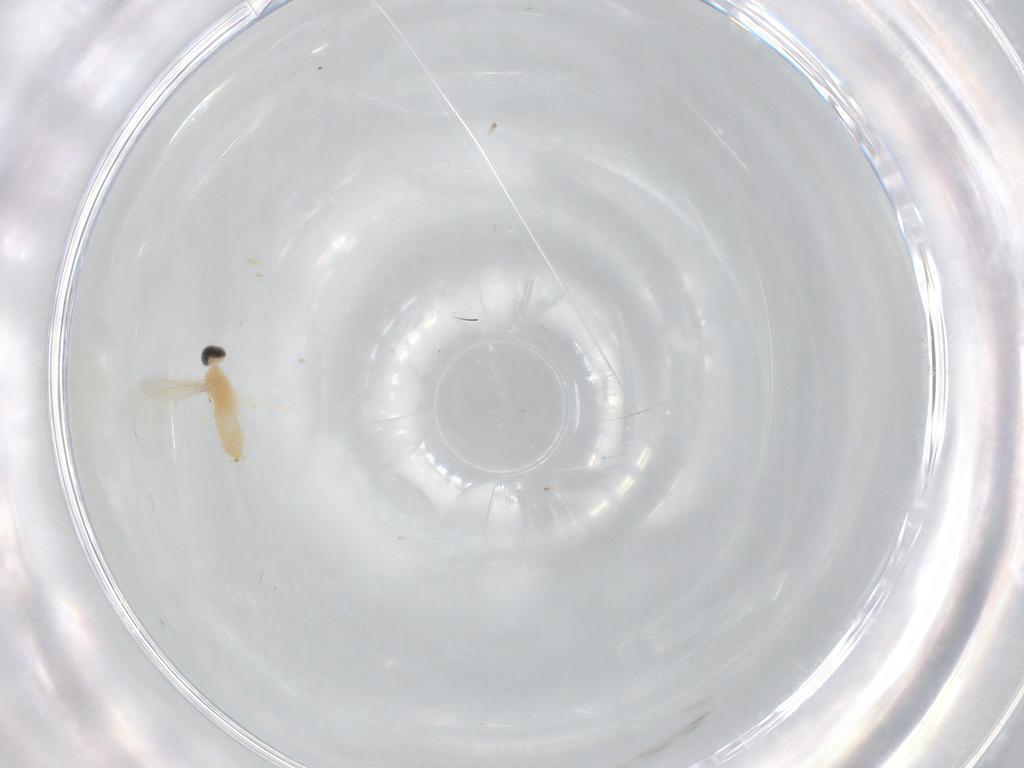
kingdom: Animalia
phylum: Arthropoda
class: Insecta
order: Diptera
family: Cecidomyiidae
